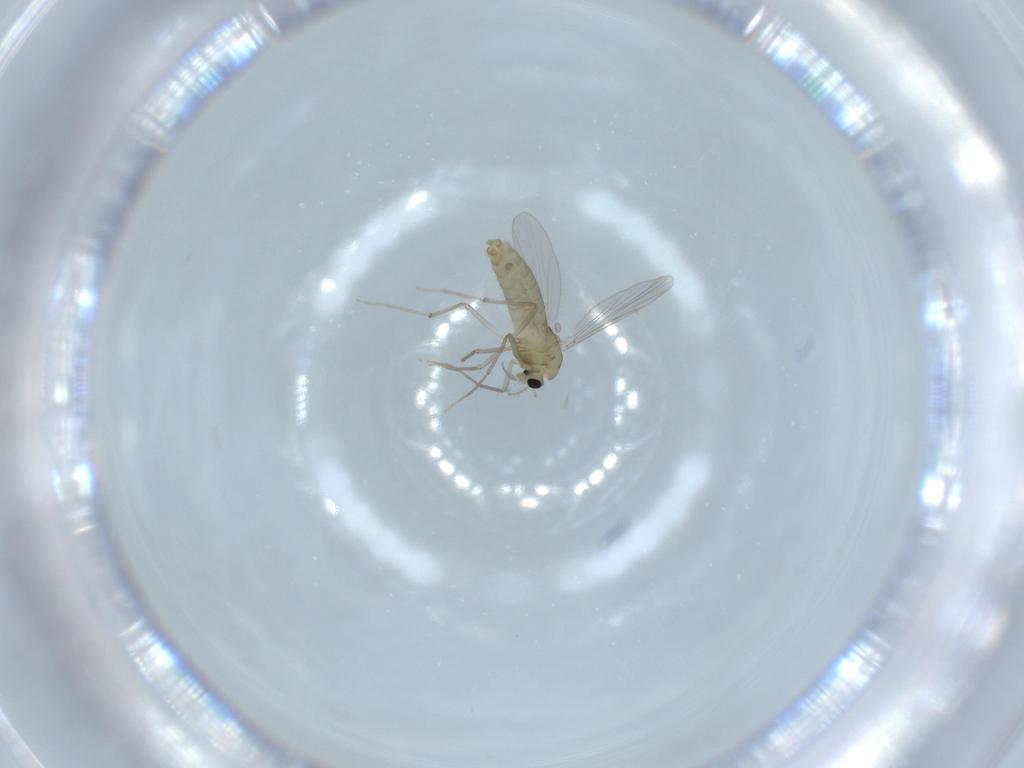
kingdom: Animalia
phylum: Arthropoda
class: Insecta
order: Diptera
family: Chironomidae
